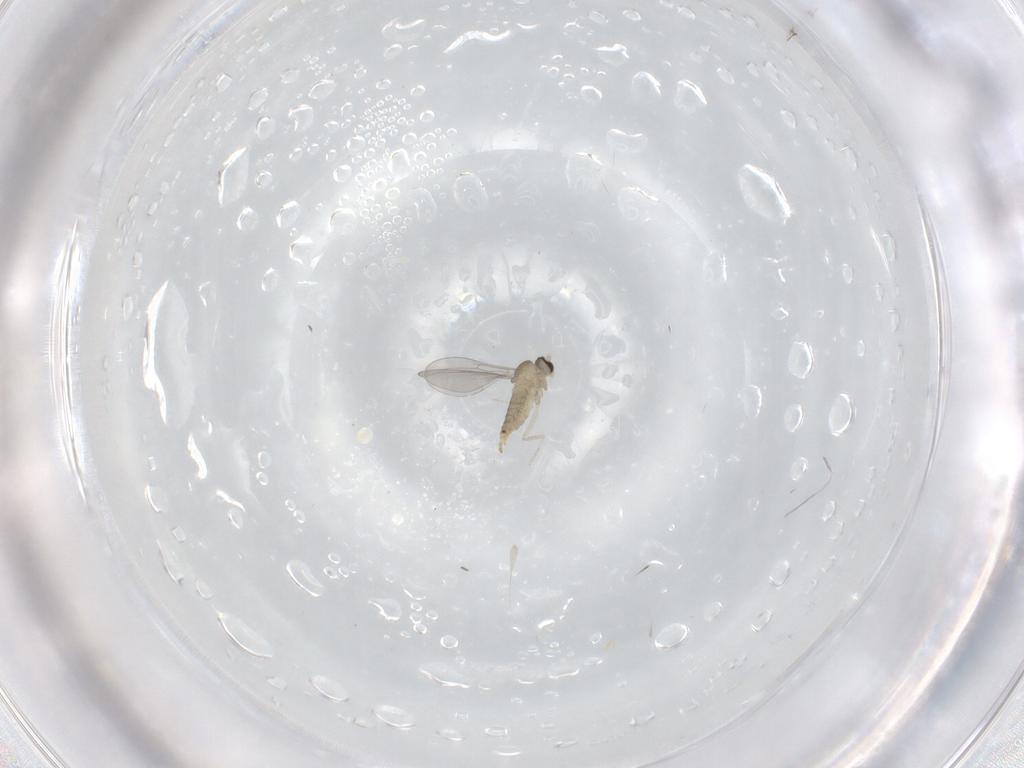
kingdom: Animalia
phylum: Arthropoda
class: Insecta
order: Diptera
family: Cecidomyiidae
